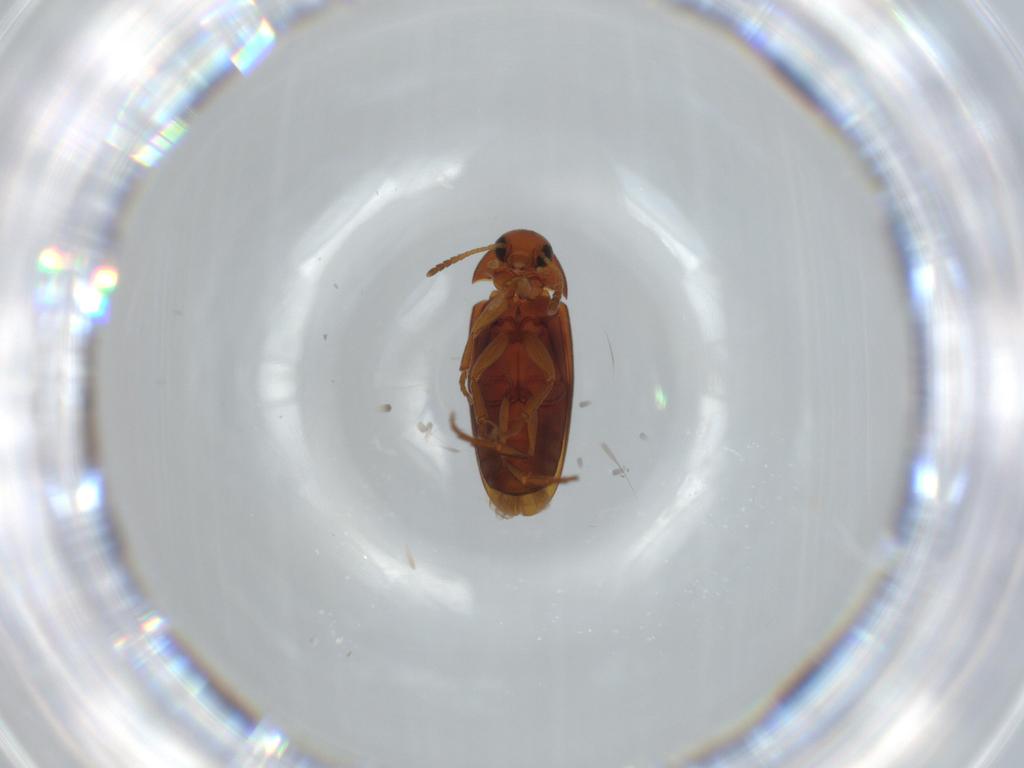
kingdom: Animalia
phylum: Arthropoda
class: Insecta
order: Coleoptera
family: Scraptiidae
